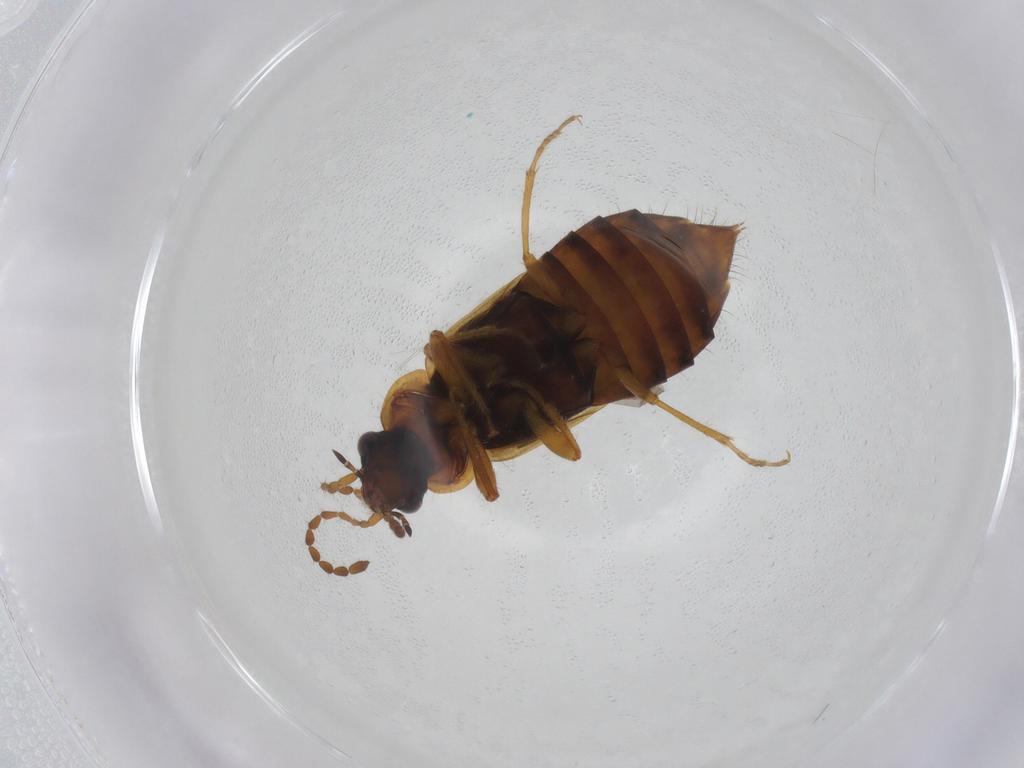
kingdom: Animalia
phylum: Arthropoda
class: Insecta
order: Coleoptera
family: Staphylinidae
